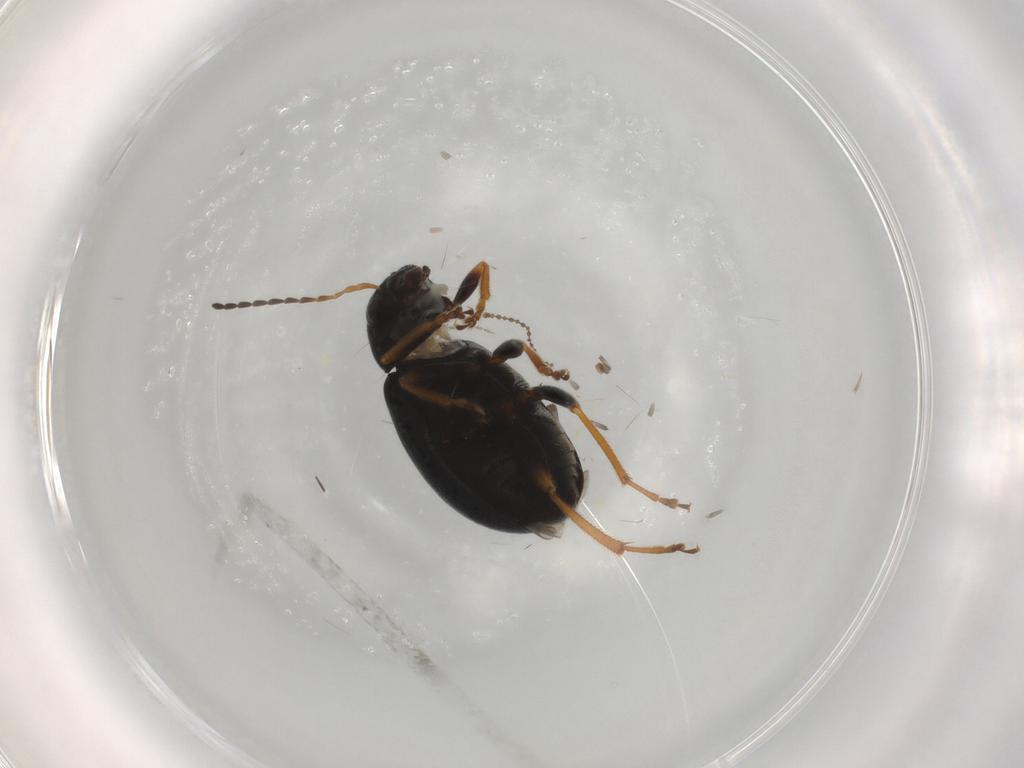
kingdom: Animalia
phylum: Arthropoda
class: Insecta
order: Coleoptera
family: Chrysomelidae
